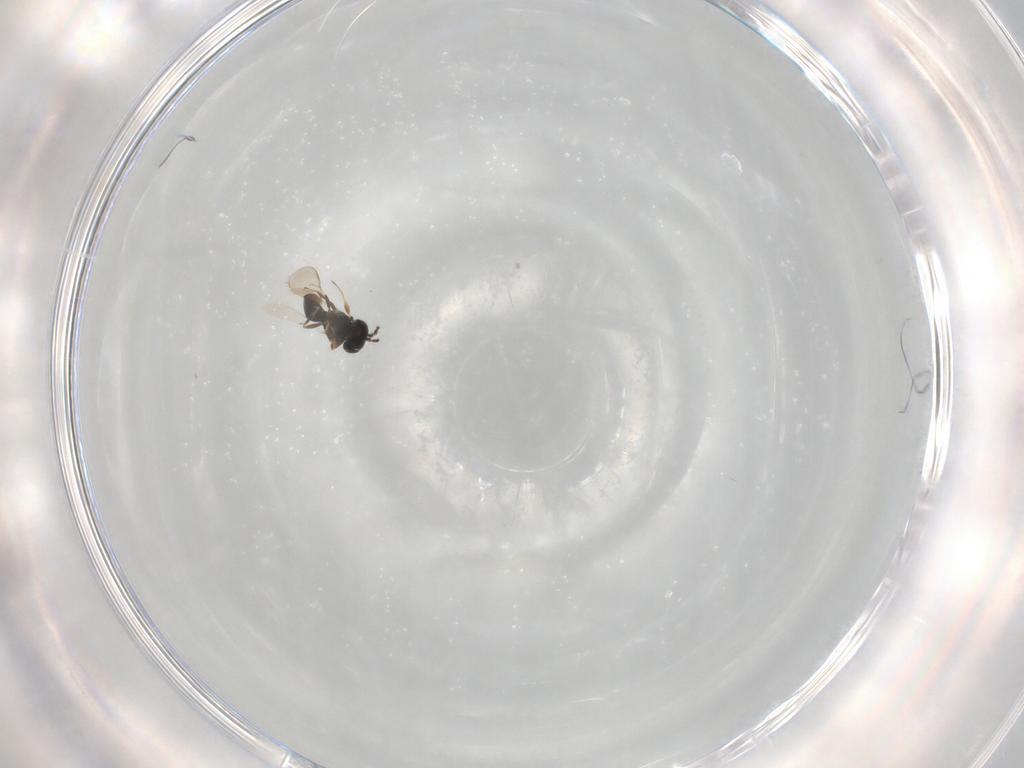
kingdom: Animalia
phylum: Arthropoda
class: Insecta
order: Hymenoptera
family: Scelionidae
